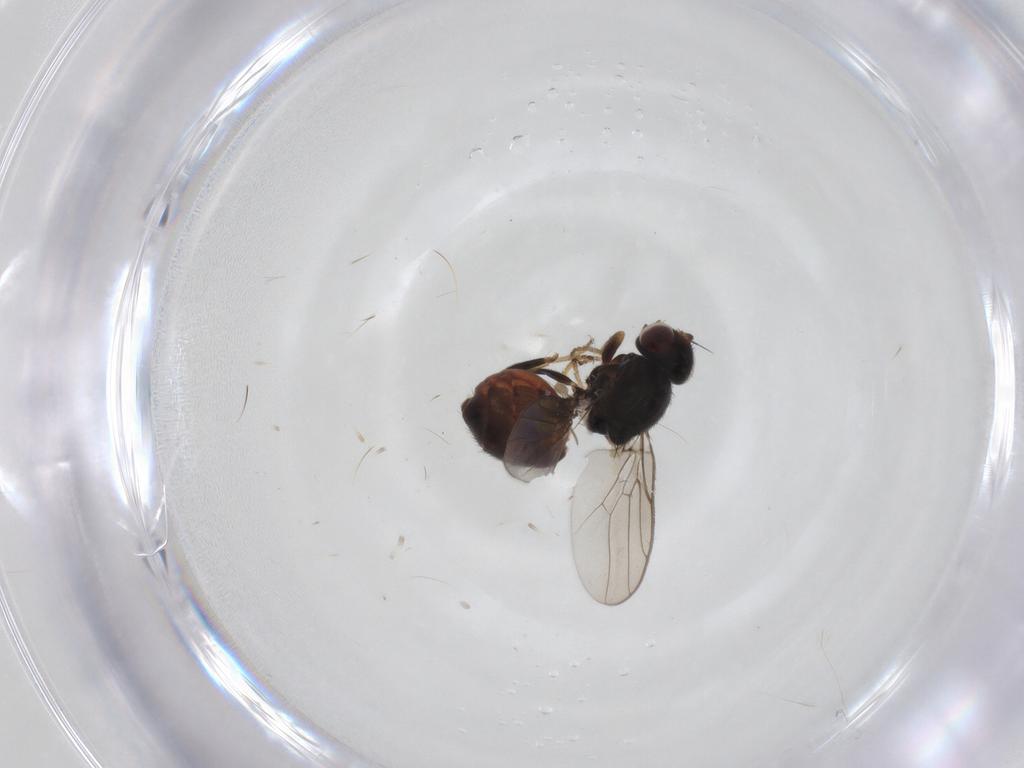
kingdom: Animalia
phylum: Arthropoda
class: Insecta
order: Diptera
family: Chloropidae
